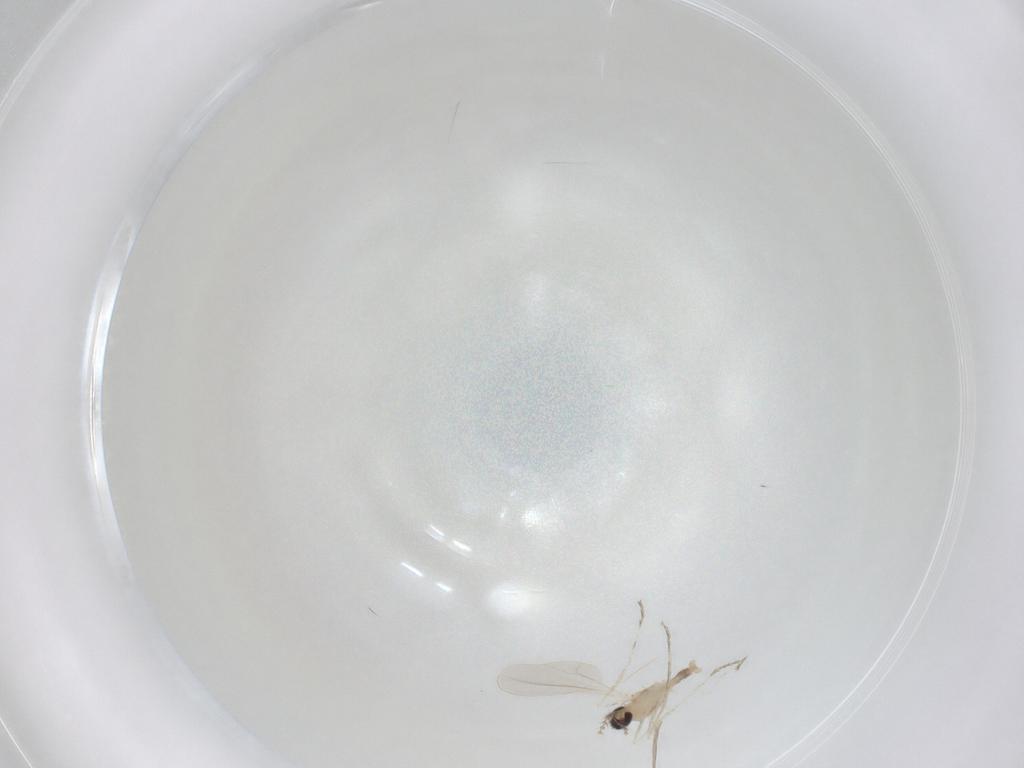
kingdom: Animalia
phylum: Arthropoda
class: Insecta
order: Diptera
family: Cecidomyiidae
